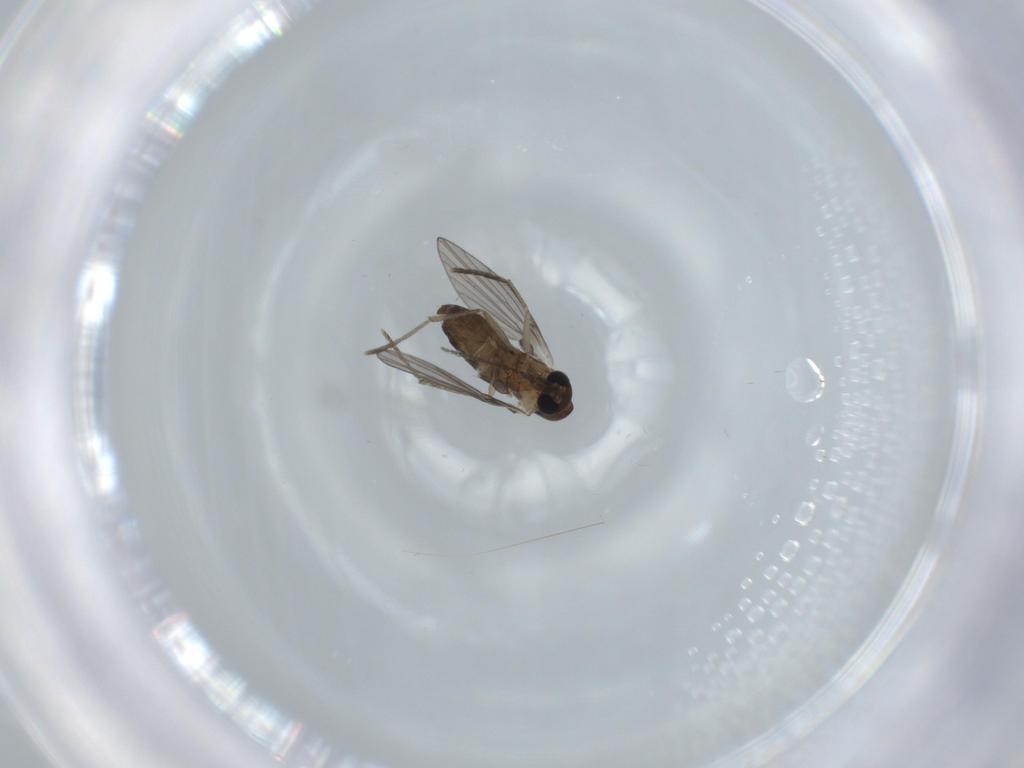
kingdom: Animalia
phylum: Arthropoda
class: Insecta
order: Diptera
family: Psychodidae
